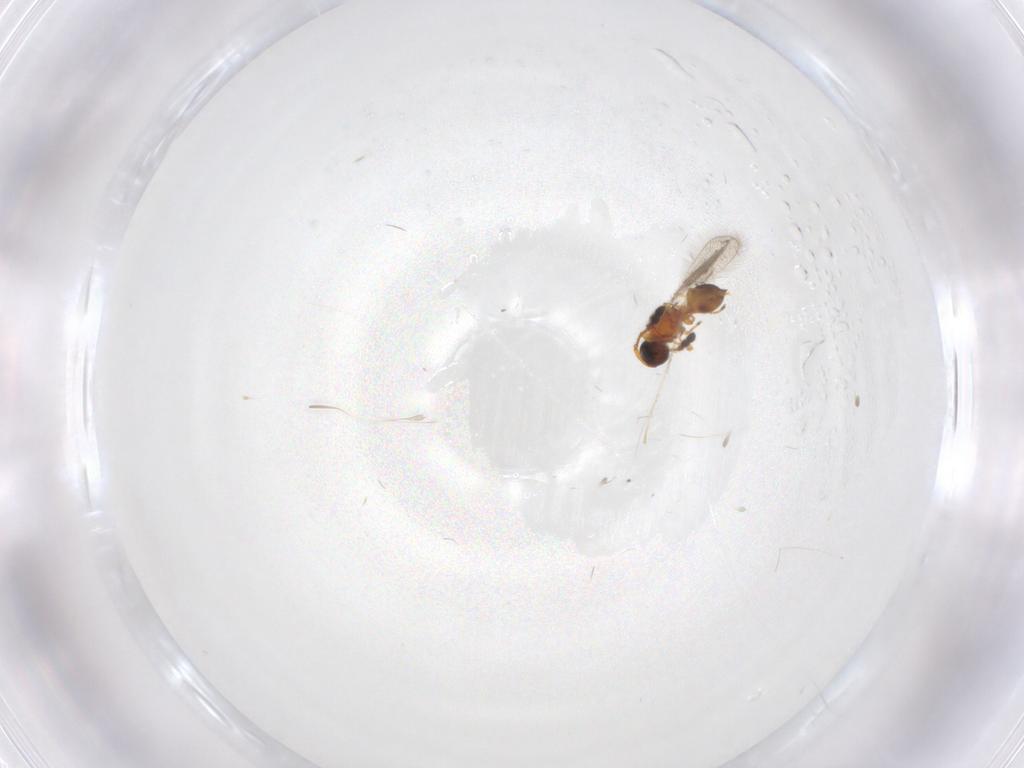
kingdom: Animalia
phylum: Arthropoda
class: Insecta
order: Hymenoptera
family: Diapriidae
